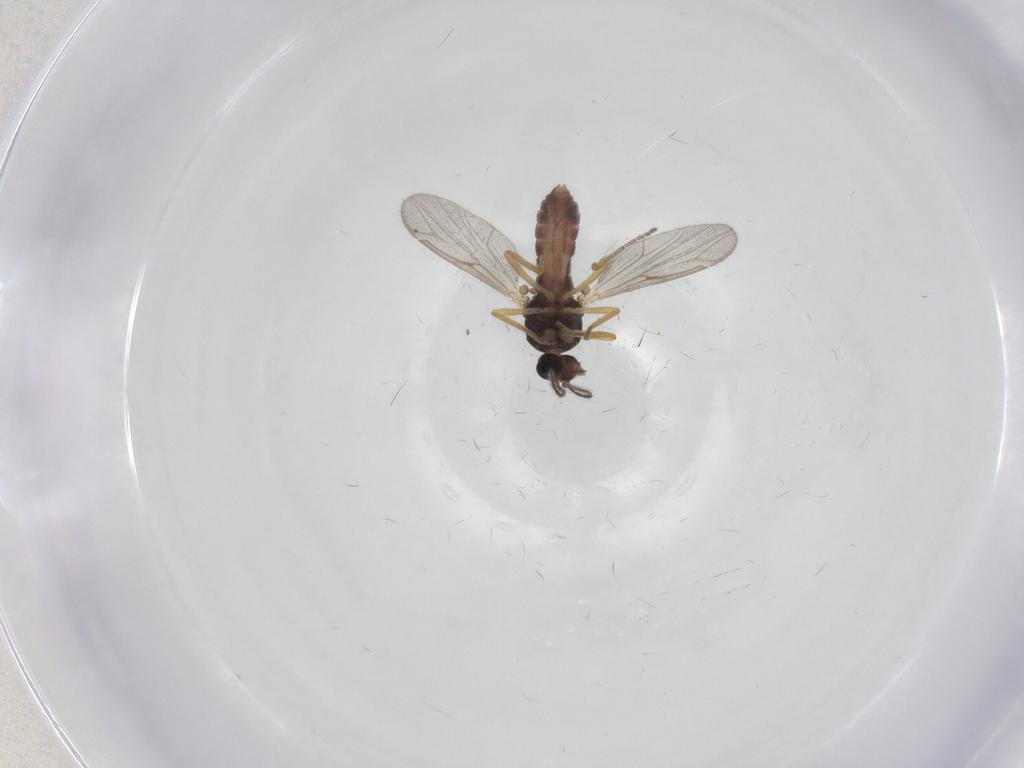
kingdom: Animalia
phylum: Arthropoda
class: Insecta
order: Diptera
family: Ceratopogonidae
